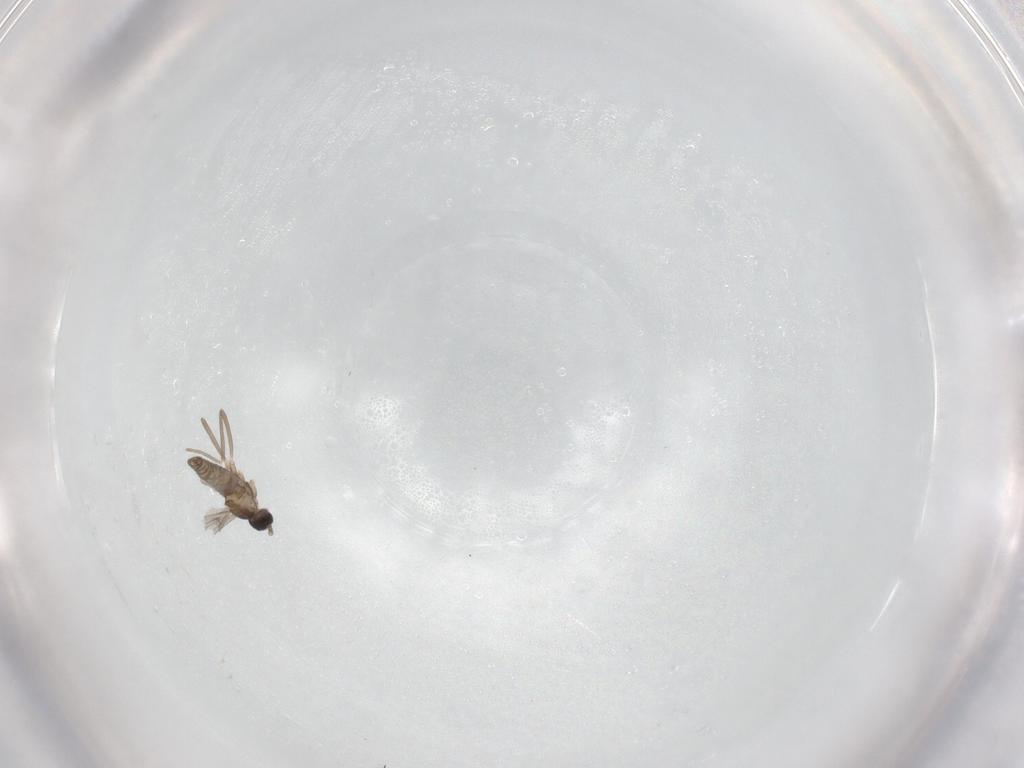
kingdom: Animalia
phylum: Arthropoda
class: Insecta
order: Diptera
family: Cecidomyiidae
